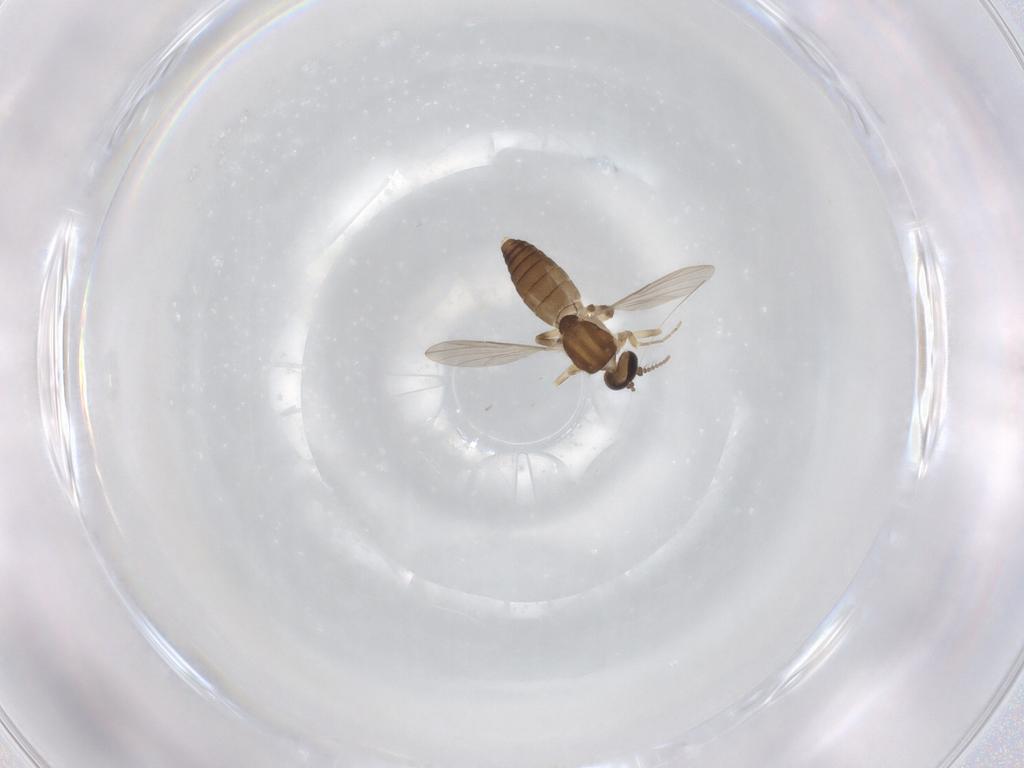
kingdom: Animalia
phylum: Arthropoda
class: Insecta
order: Diptera
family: Ceratopogonidae
